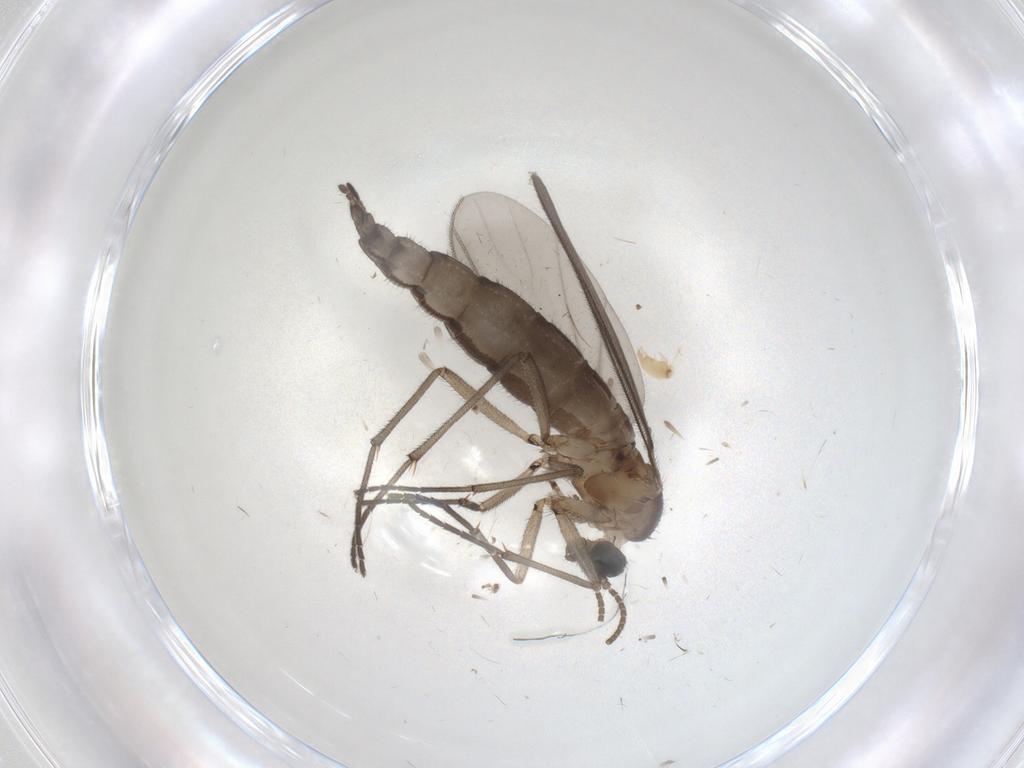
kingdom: Animalia
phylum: Arthropoda
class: Insecta
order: Diptera
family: Sciaridae
